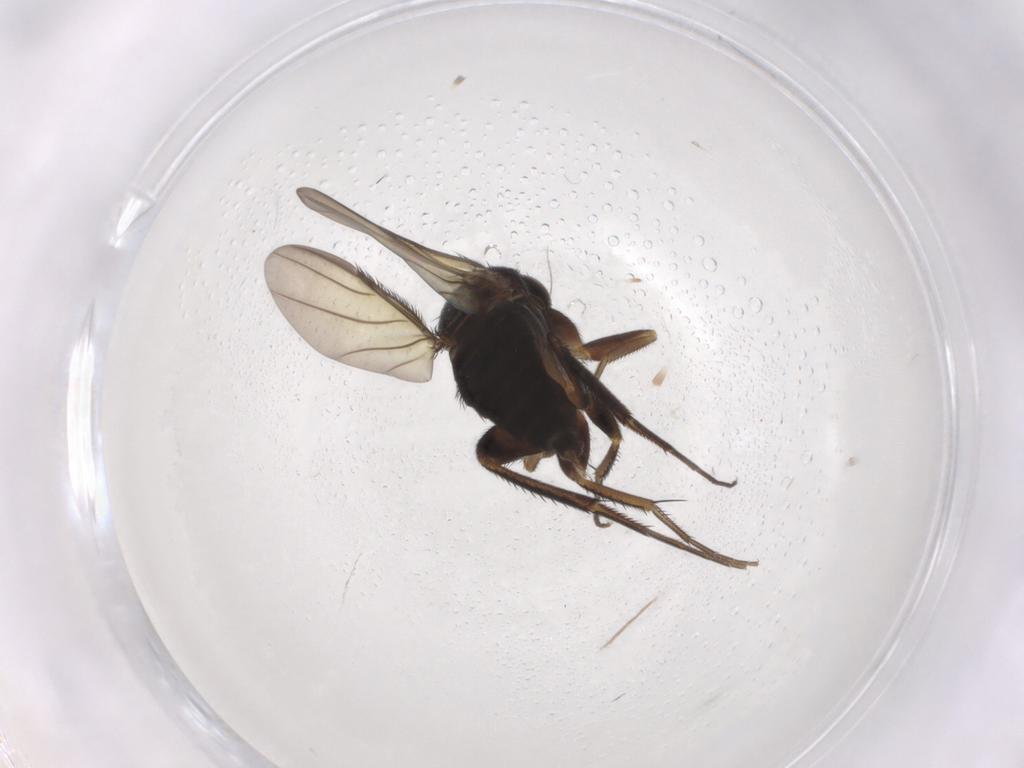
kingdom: Animalia
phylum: Arthropoda
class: Insecta
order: Diptera
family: Phoridae
